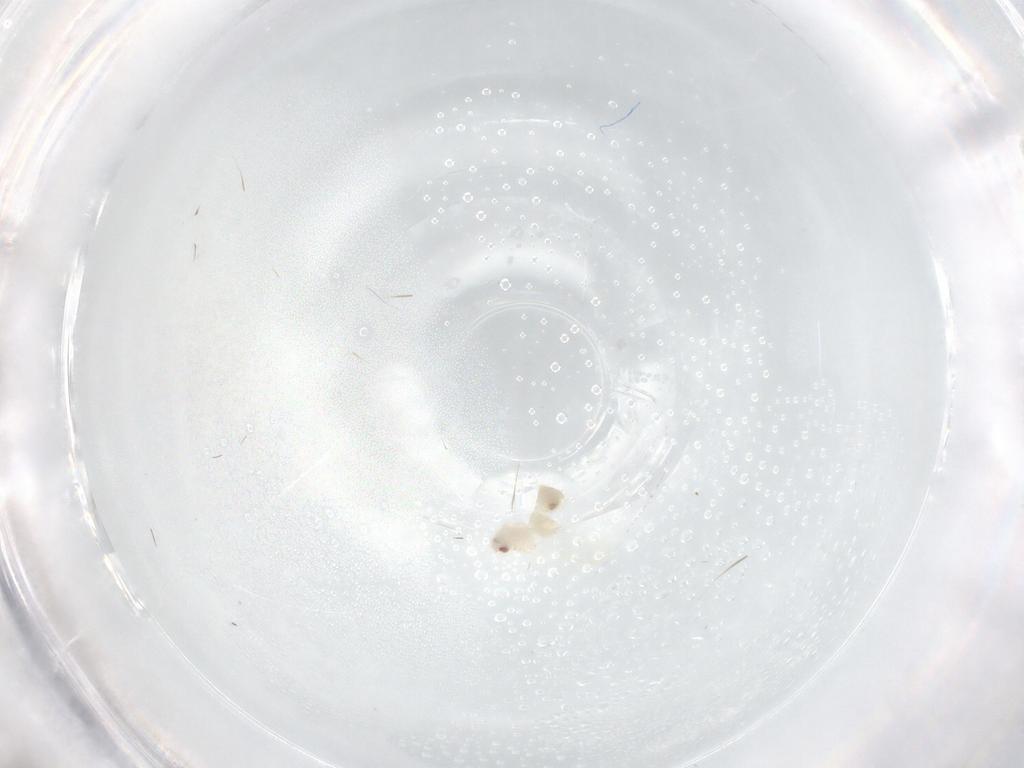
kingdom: Animalia
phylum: Arthropoda
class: Insecta
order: Hemiptera
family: Aleyrodidae
